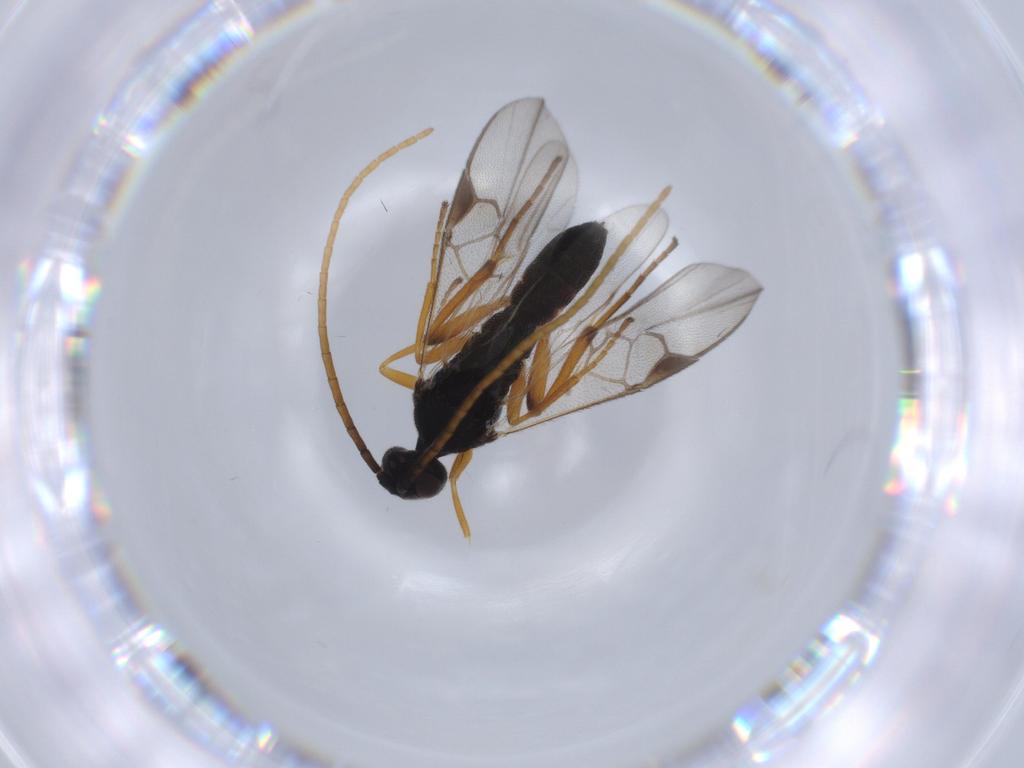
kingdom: Animalia
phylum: Arthropoda
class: Insecta
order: Hymenoptera
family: Braconidae
